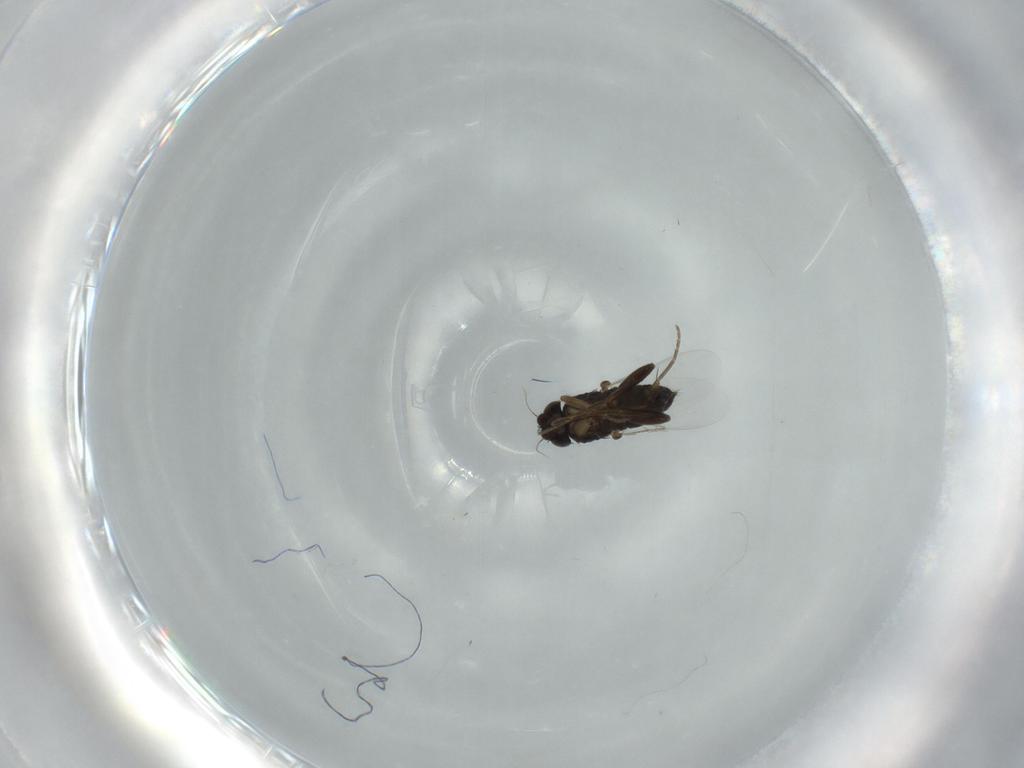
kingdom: Animalia
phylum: Arthropoda
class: Insecta
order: Diptera
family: Phoridae
